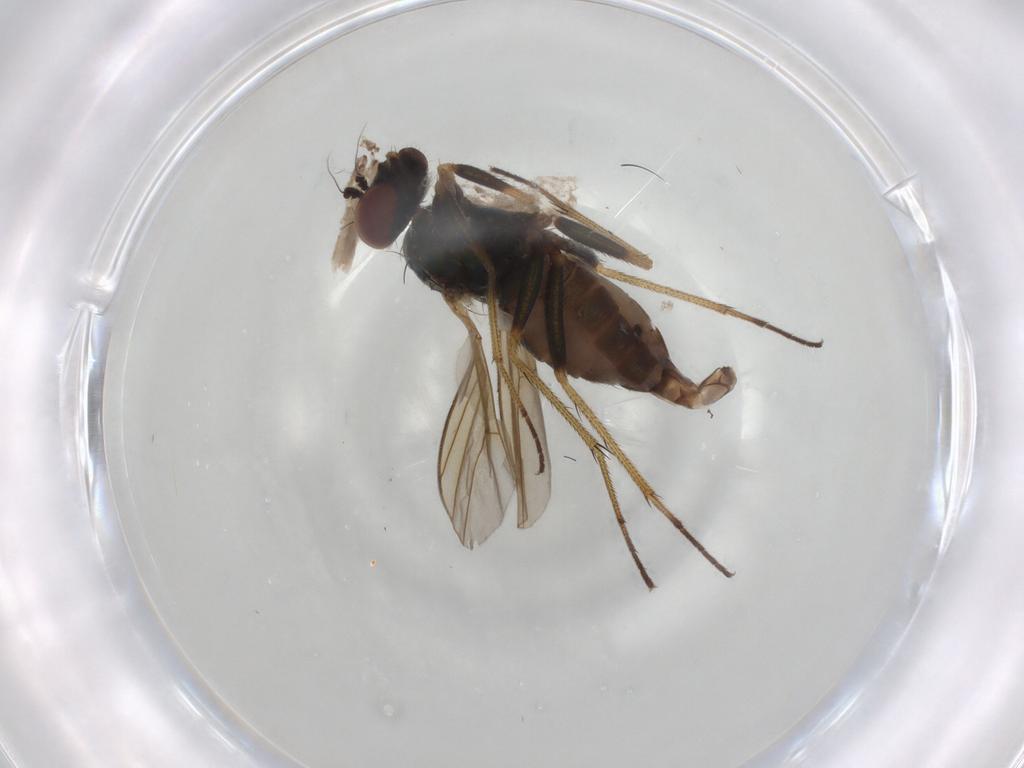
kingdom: Animalia
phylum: Arthropoda
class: Insecta
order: Diptera
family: Dolichopodidae
